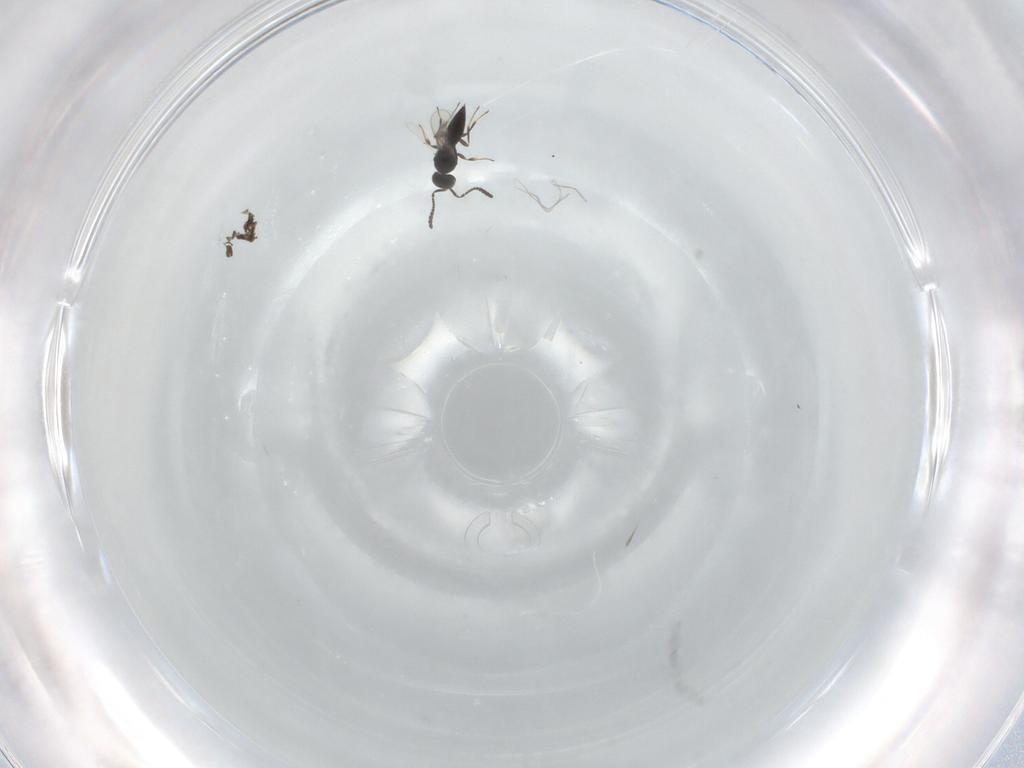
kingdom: Animalia
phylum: Arthropoda
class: Insecta
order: Hymenoptera
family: Scelionidae
